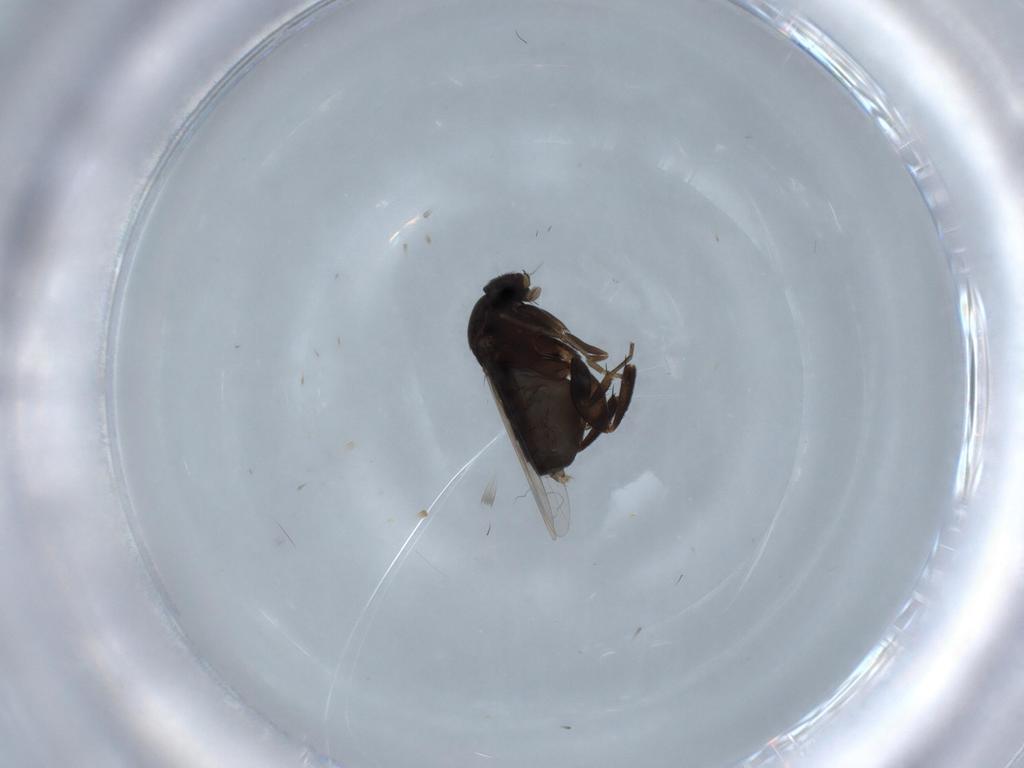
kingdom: Animalia
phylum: Arthropoda
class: Insecta
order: Diptera
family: Phoridae
